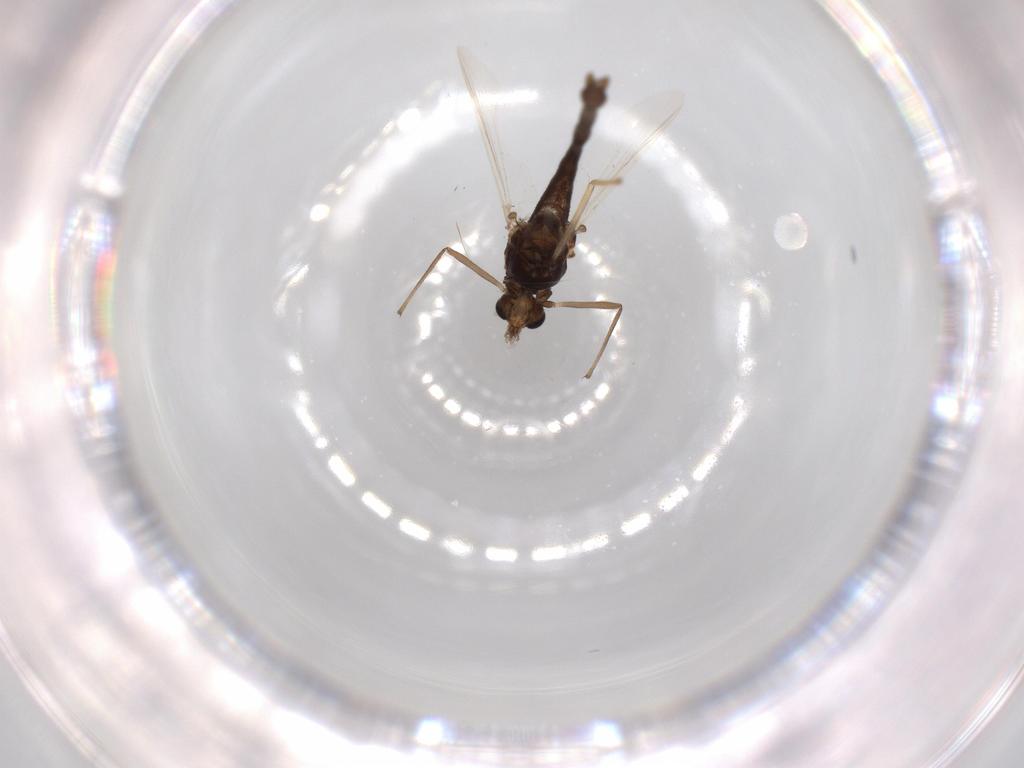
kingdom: Animalia
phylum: Arthropoda
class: Insecta
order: Diptera
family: Chironomidae
